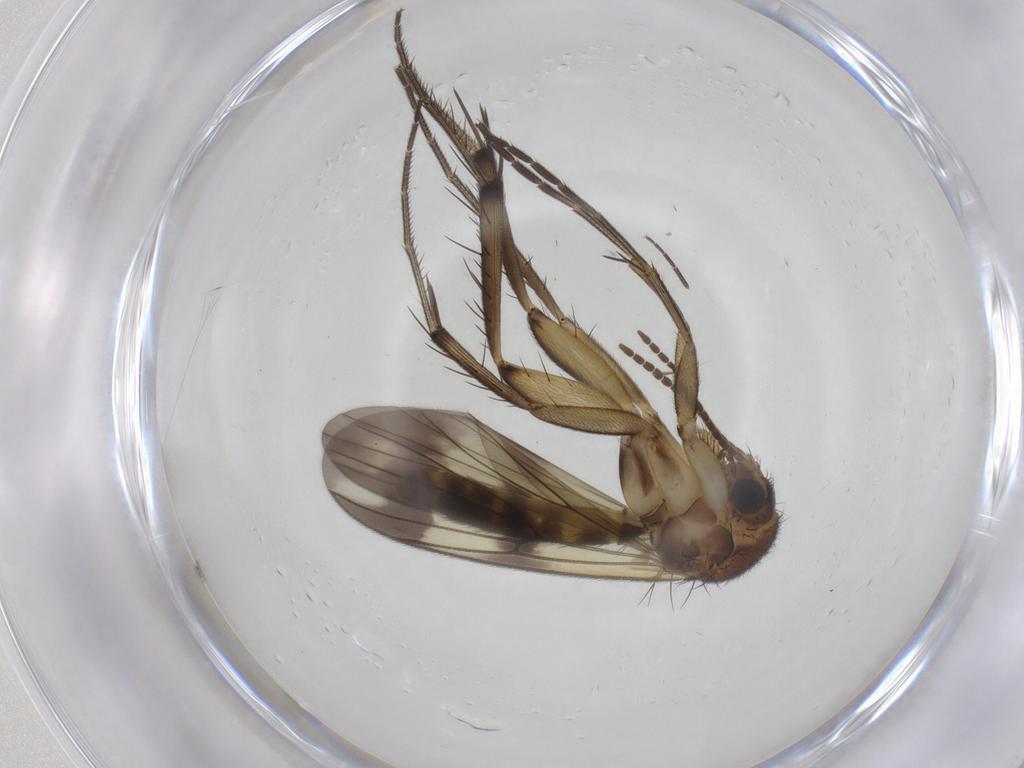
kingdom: Animalia
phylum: Arthropoda
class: Insecta
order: Diptera
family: Mycetophilidae
